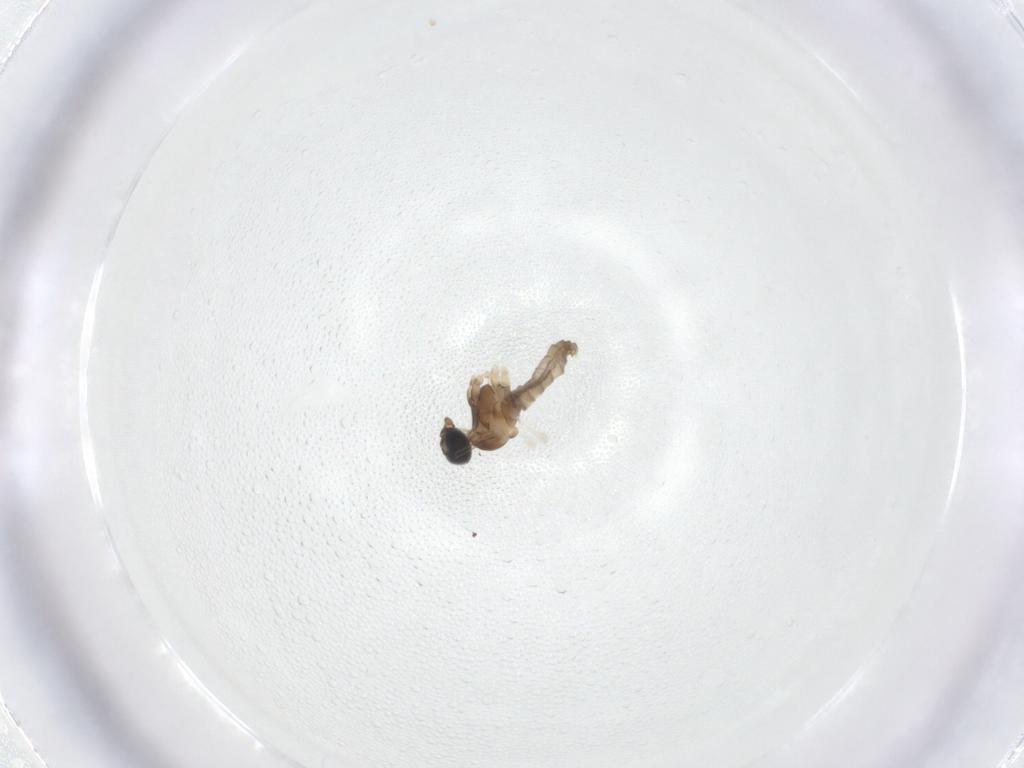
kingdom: Animalia
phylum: Arthropoda
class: Insecta
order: Diptera
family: Cecidomyiidae
